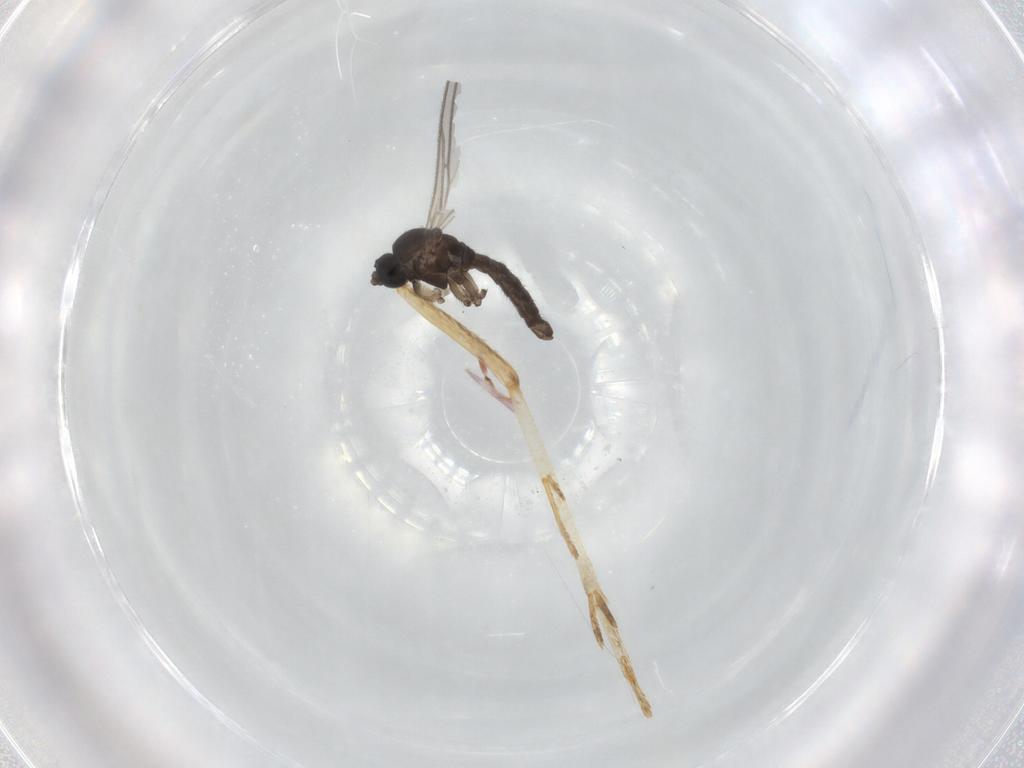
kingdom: Animalia
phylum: Arthropoda
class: Insecta
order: Diptera
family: Sciaridae
